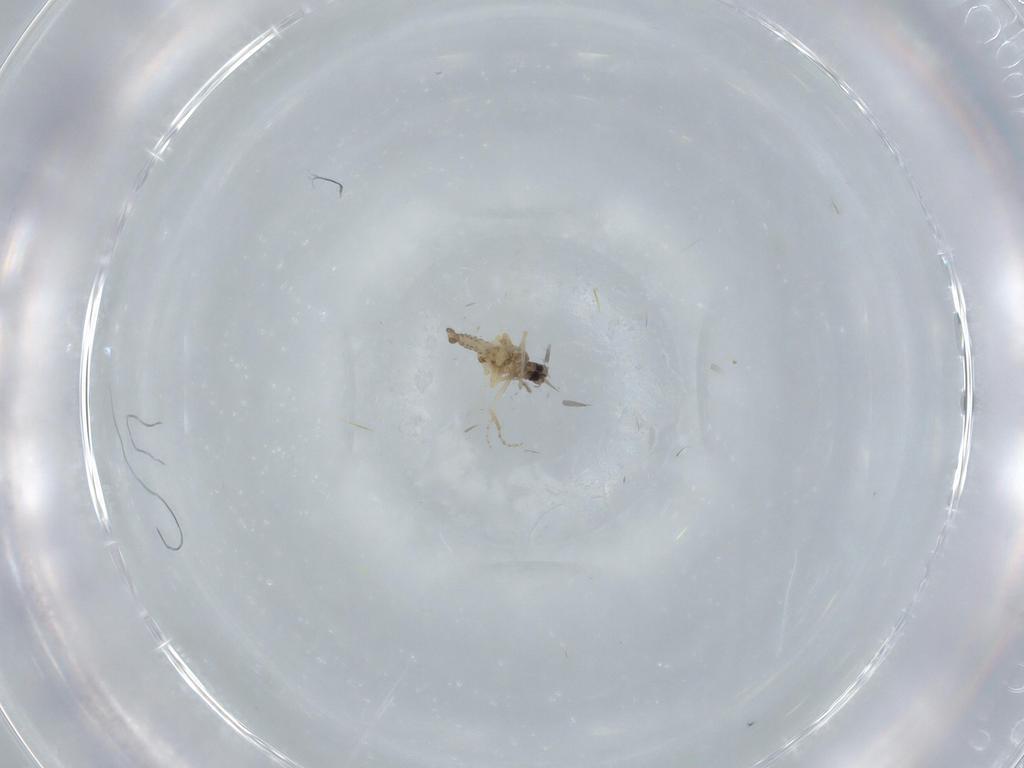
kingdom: Animalia
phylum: Arthropoda
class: Insecta
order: Diptera
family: Ceratopogonidae
